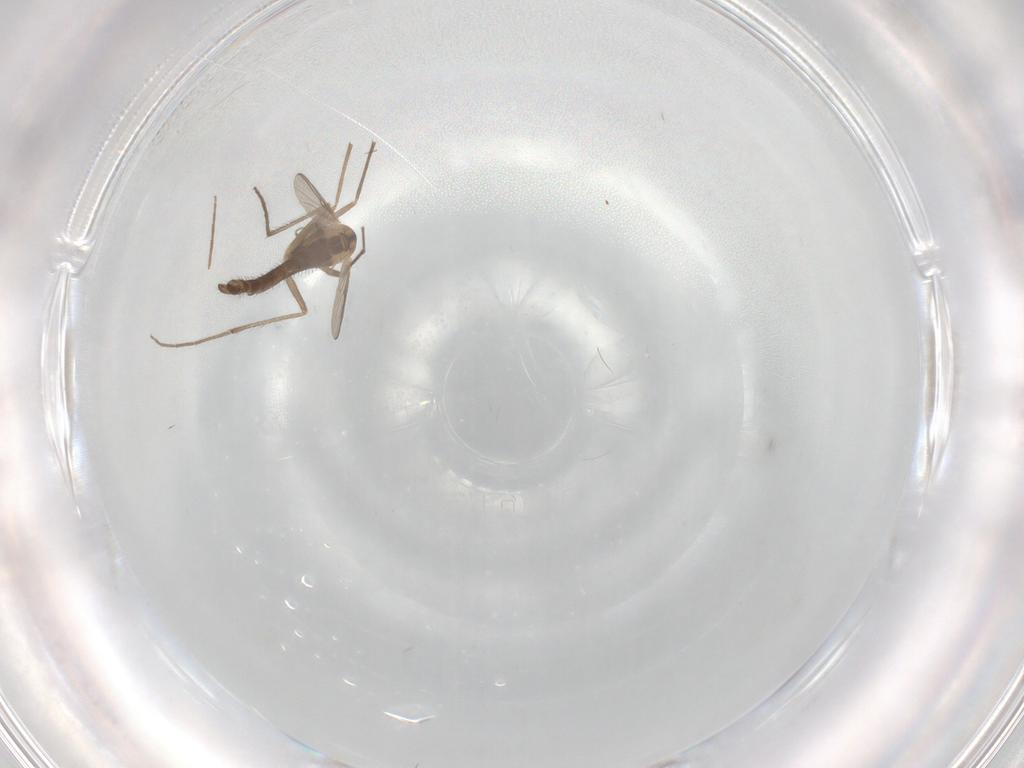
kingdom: Animalia
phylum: Arthropoda
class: Insecta
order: Diptera
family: Chironomidae
